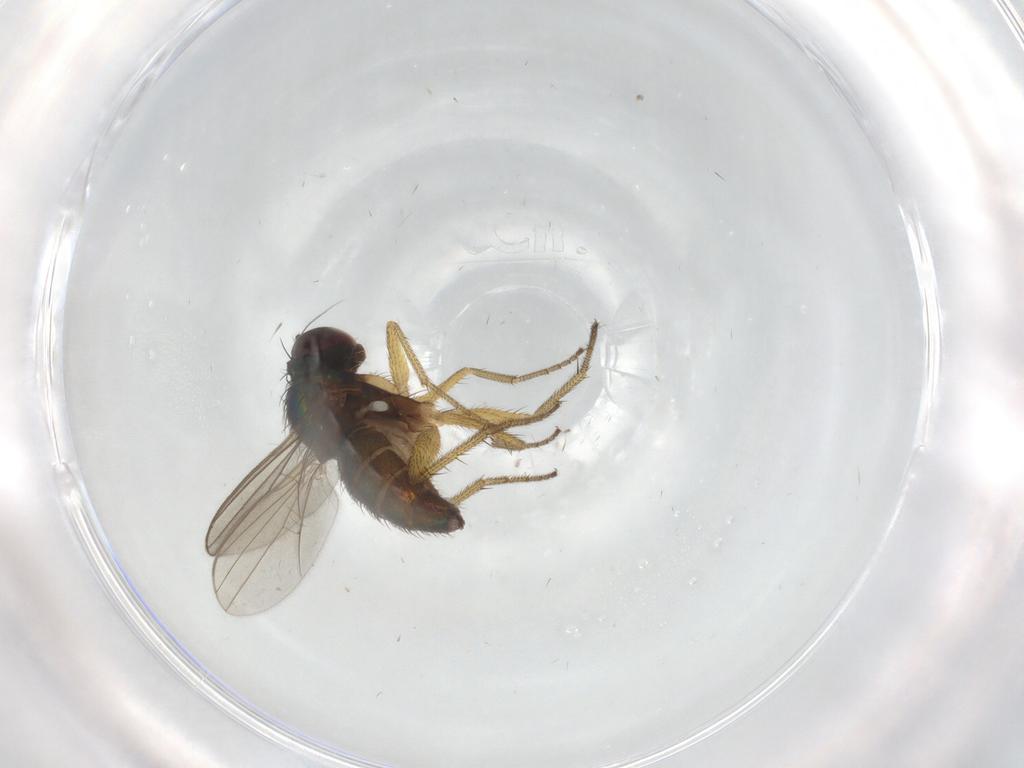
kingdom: Animalia
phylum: Arthropoda
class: Insecta
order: Diptera
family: Dolichopodidae
